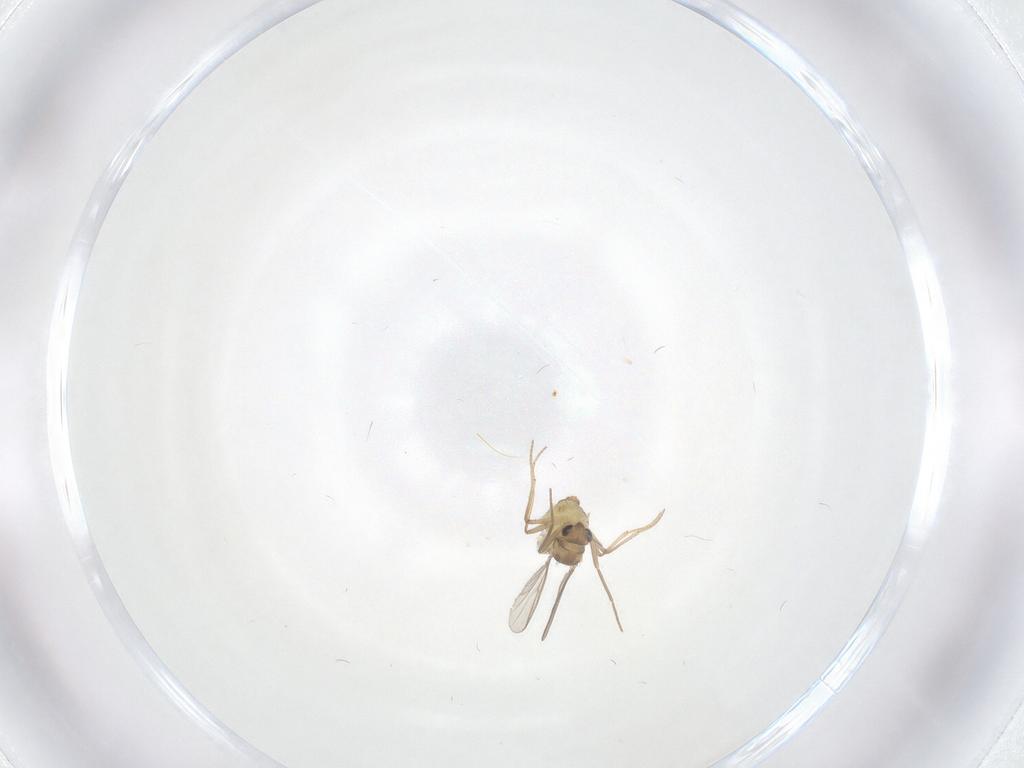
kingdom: Animalia
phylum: Arthropoda
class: Insecta
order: Diptera
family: Chironomidae
